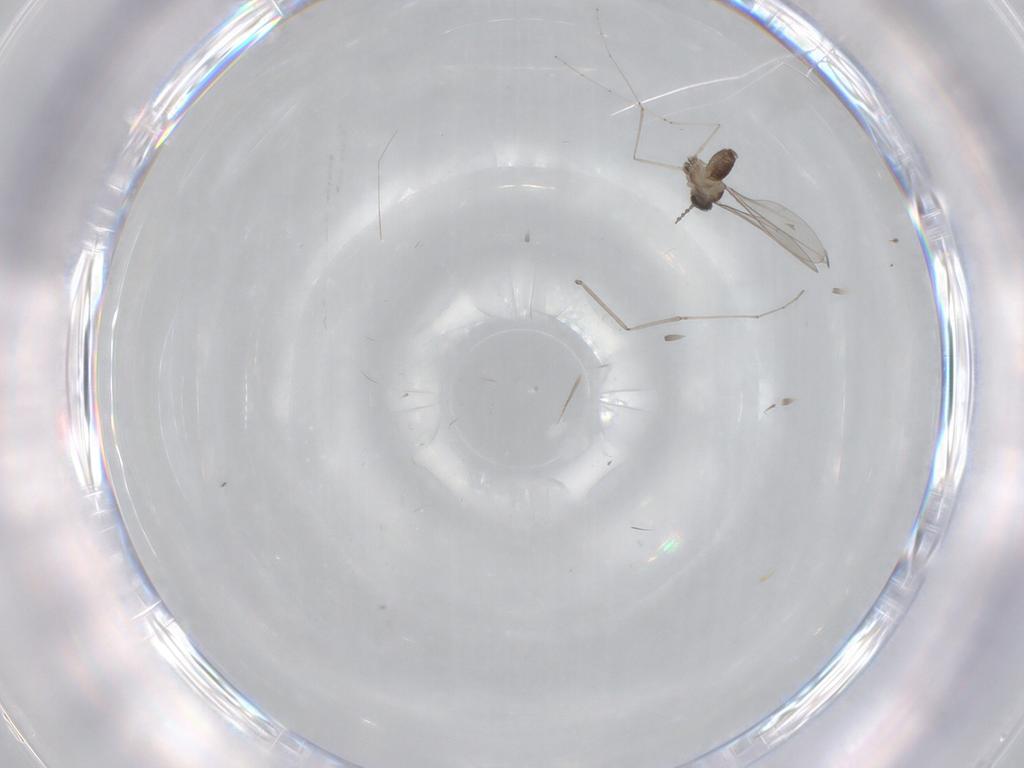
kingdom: Animalia
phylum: Arthropoda
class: Insecta
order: Diptera
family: Cecidomyiidae
